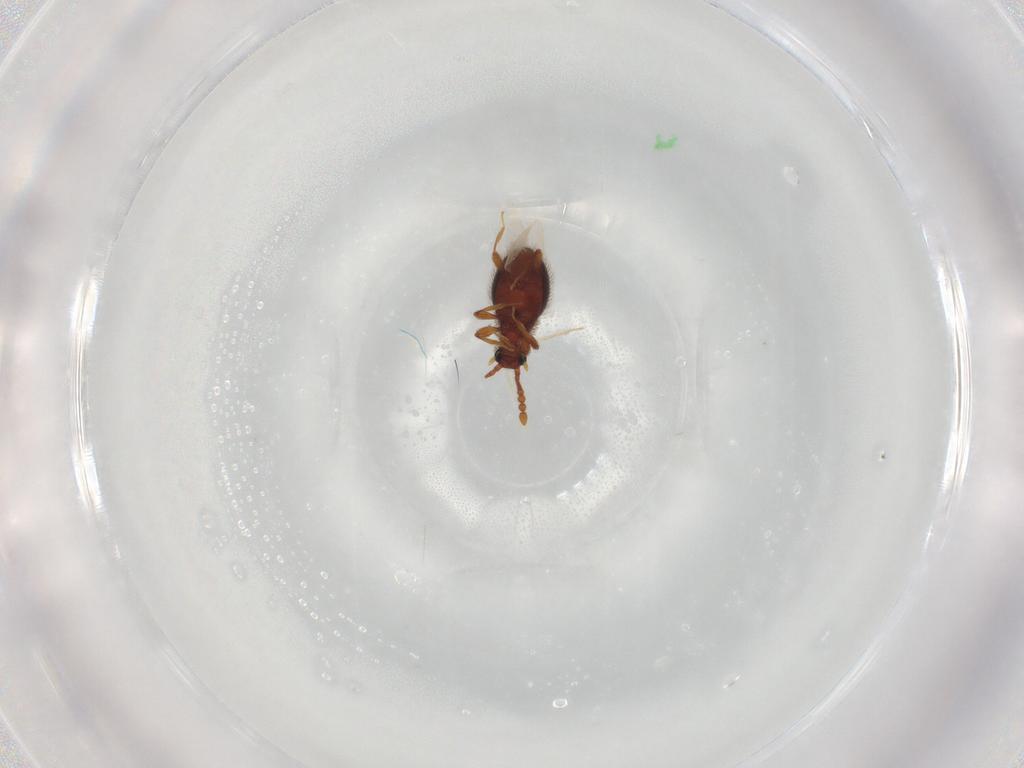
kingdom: Animalia
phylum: Arthropoda
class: Insecta
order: Coleoptera
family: Staphylinidae
